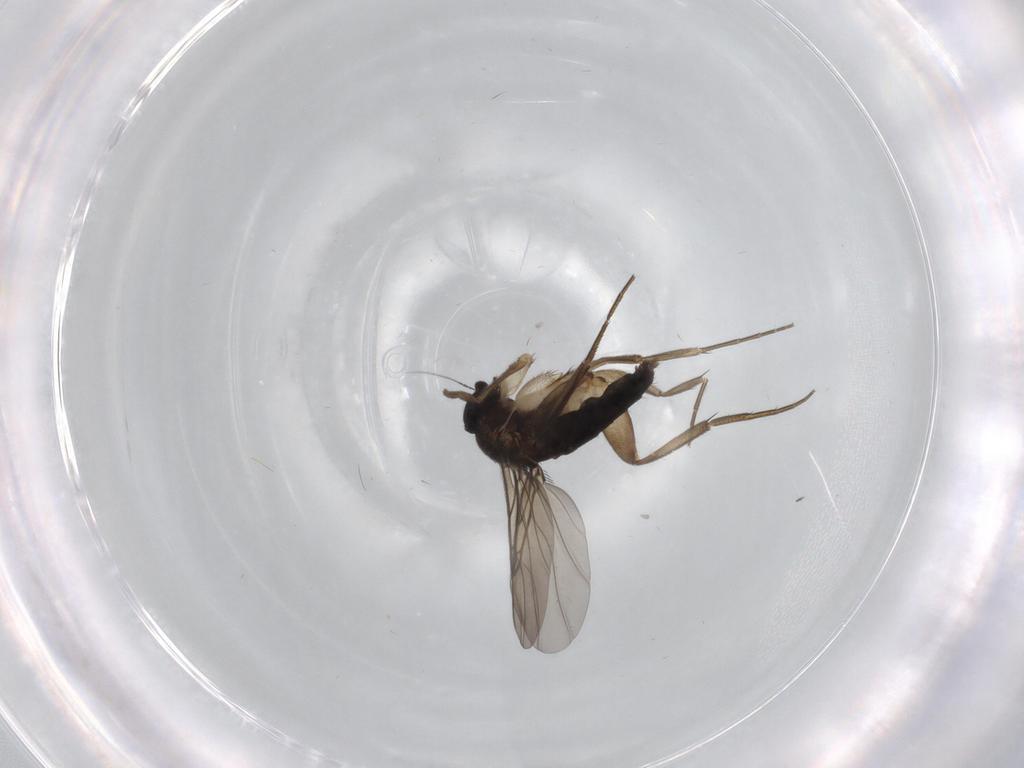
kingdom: Animalia
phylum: Arthropoda
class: Insecta
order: Diptera
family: Phoridae
